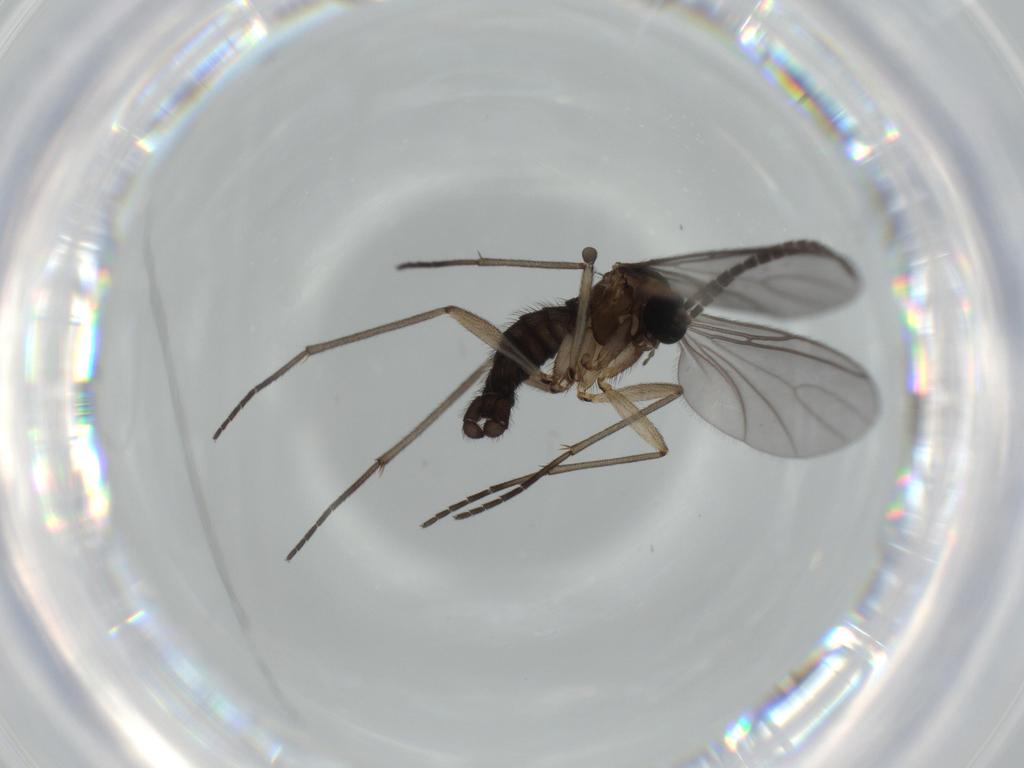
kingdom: Animalia
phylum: Arthropoda
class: Insecta
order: Diptera
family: Sciaridae
